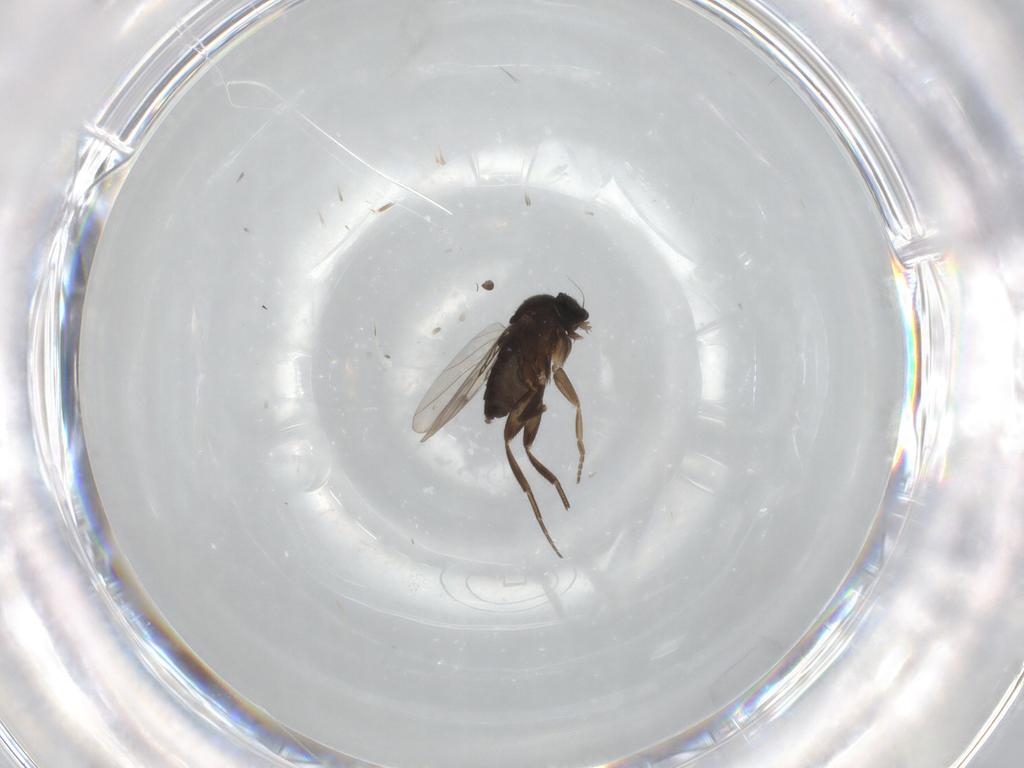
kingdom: Animalia
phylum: Arthropoda
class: Insecta
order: Diptera
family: Phoridae
